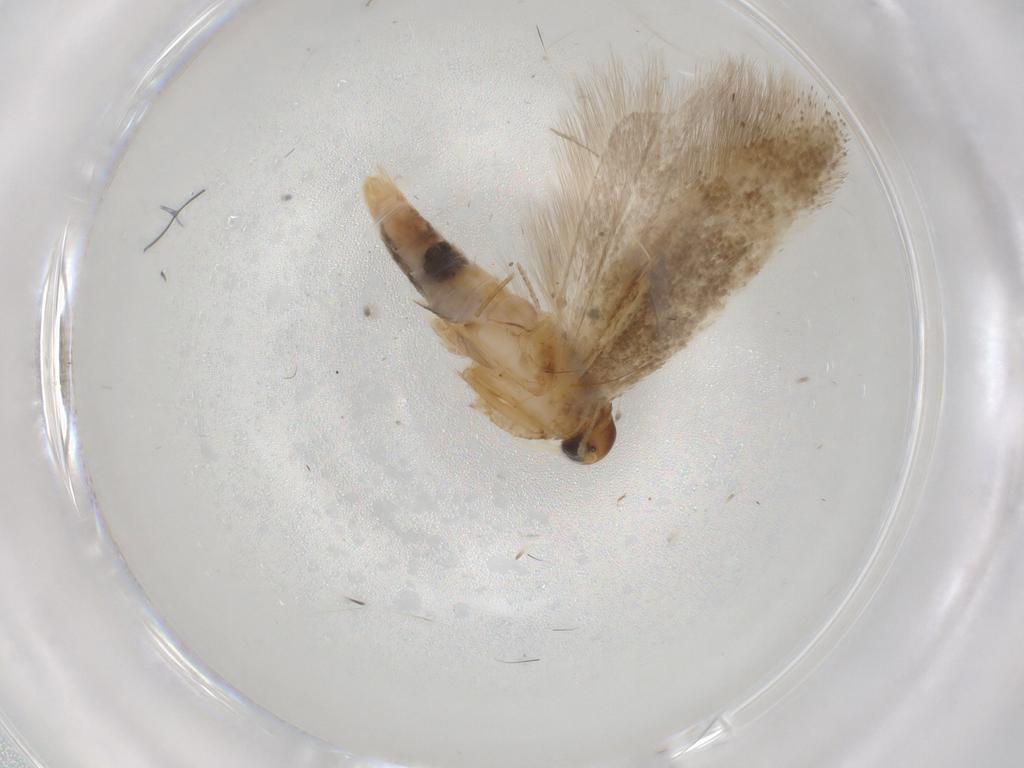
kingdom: Animalia
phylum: Arthropoda
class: Insecta
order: Lepidoptera
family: Gelechiidae
